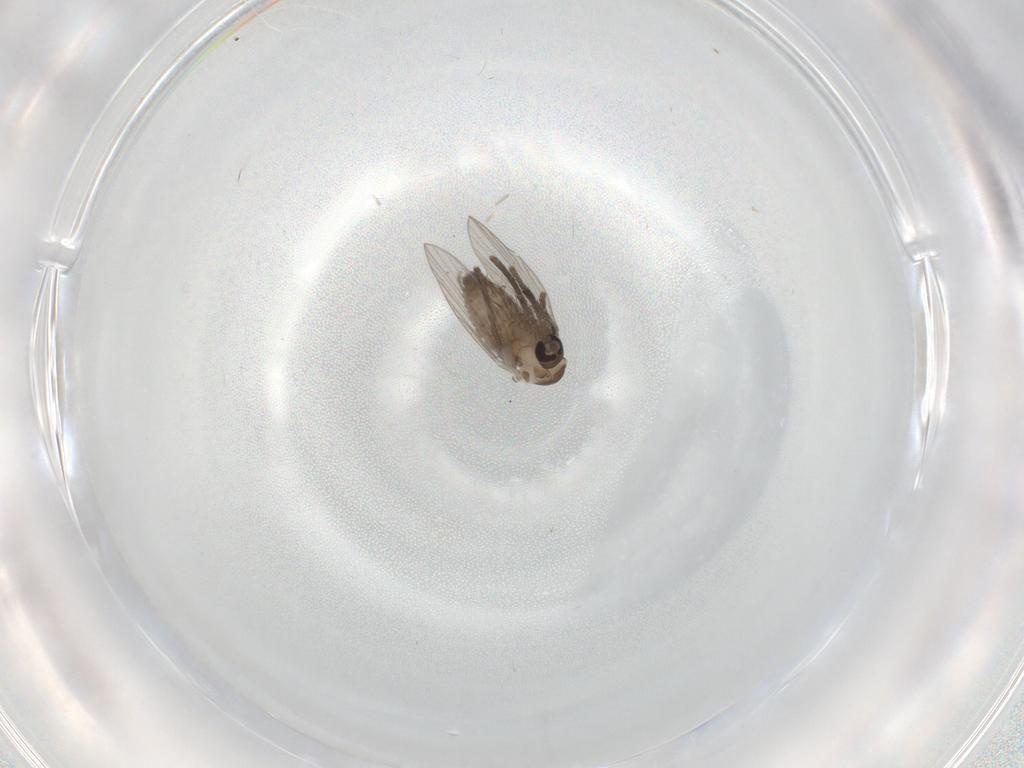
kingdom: Animalia
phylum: Arthropoda
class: Insecta
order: Diptera
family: Psychodidae
